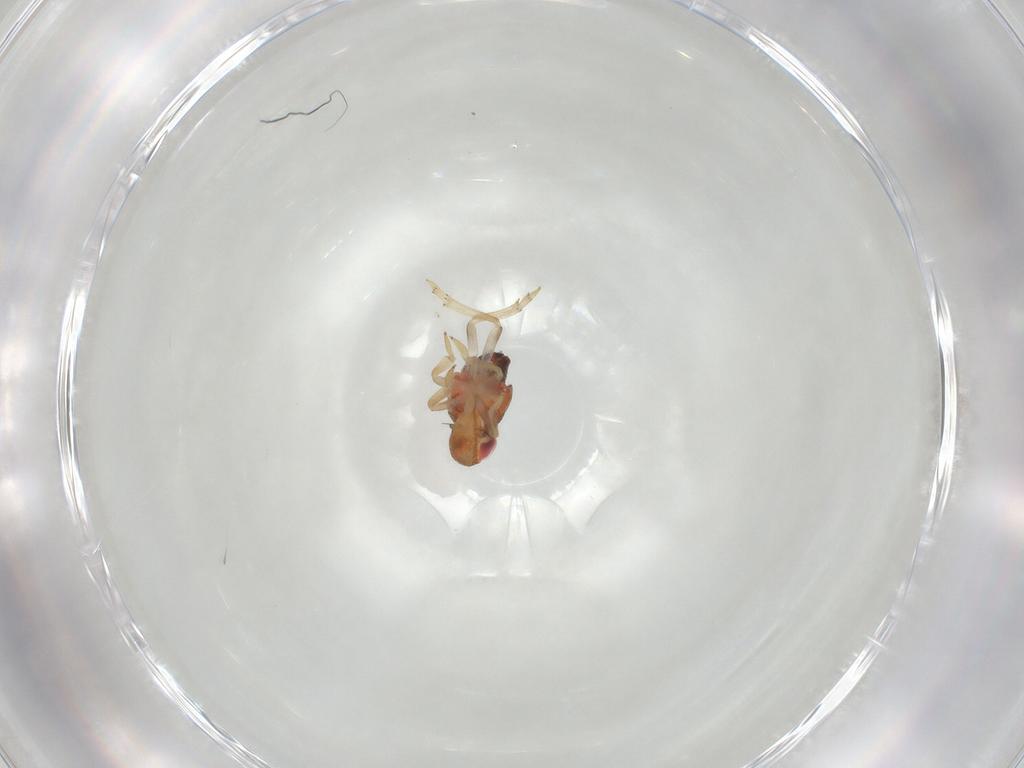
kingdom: Animalia
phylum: Arthropoda
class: Insecta
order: Hemiptera
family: Issidae
